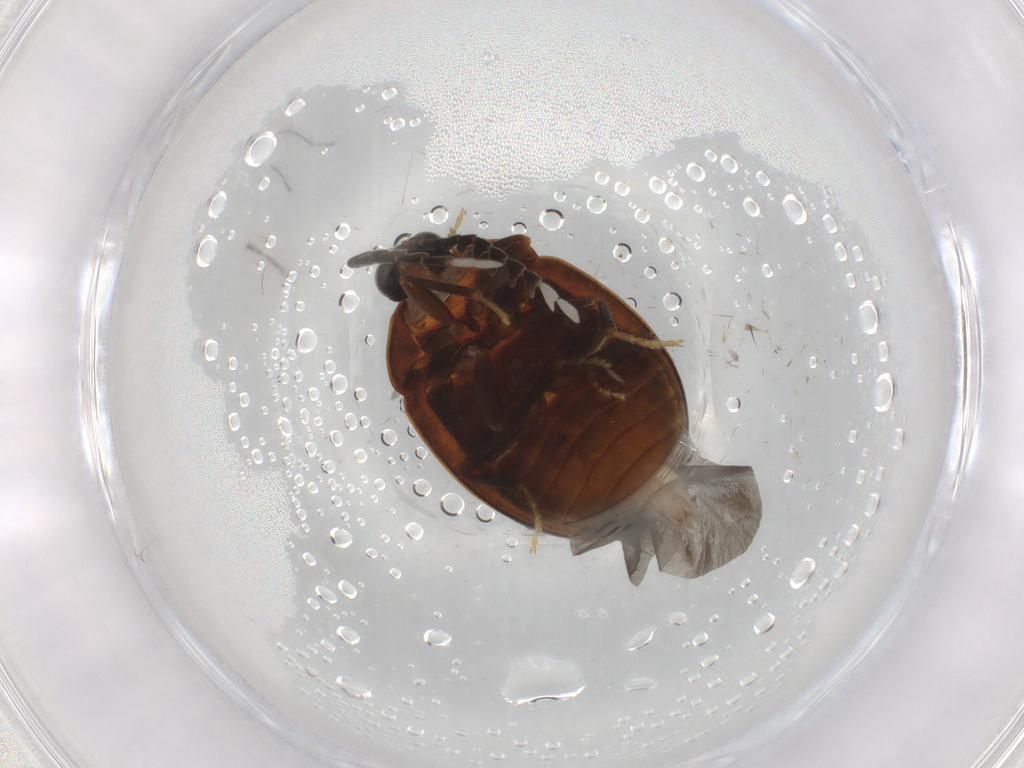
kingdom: Animalia
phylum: Arthropoda
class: Insecta
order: Coleoptera
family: Psephenidae
